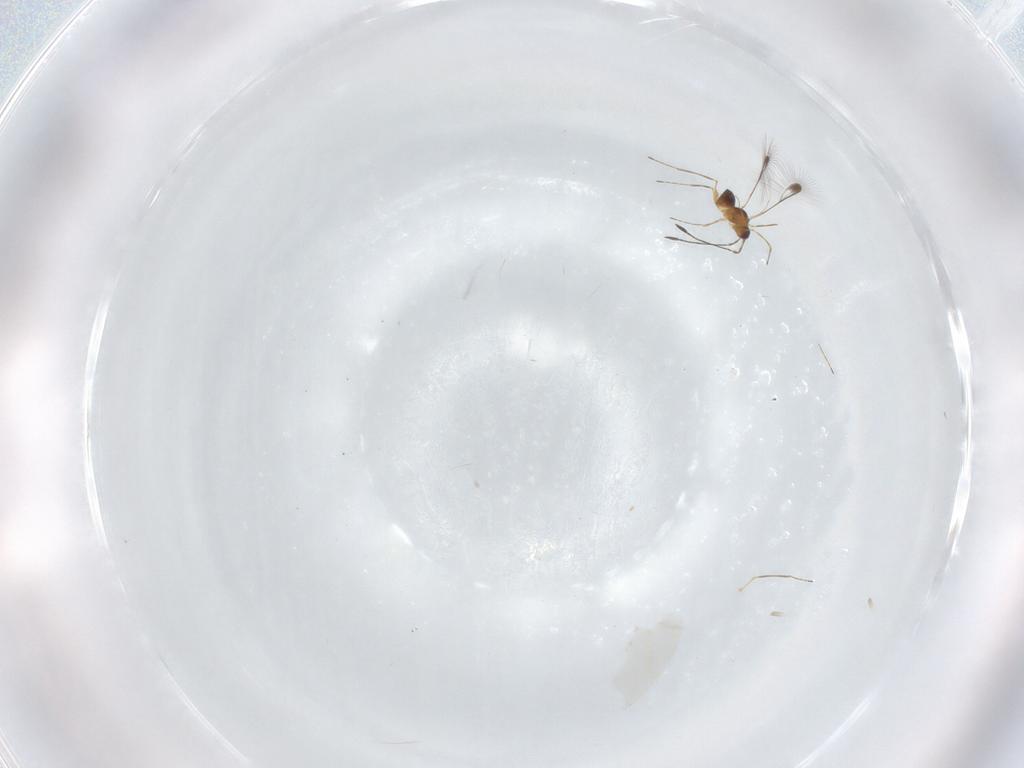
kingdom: Animalia
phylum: Arthropoda
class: Insecta
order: Hymenoptera
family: Mymaridae
